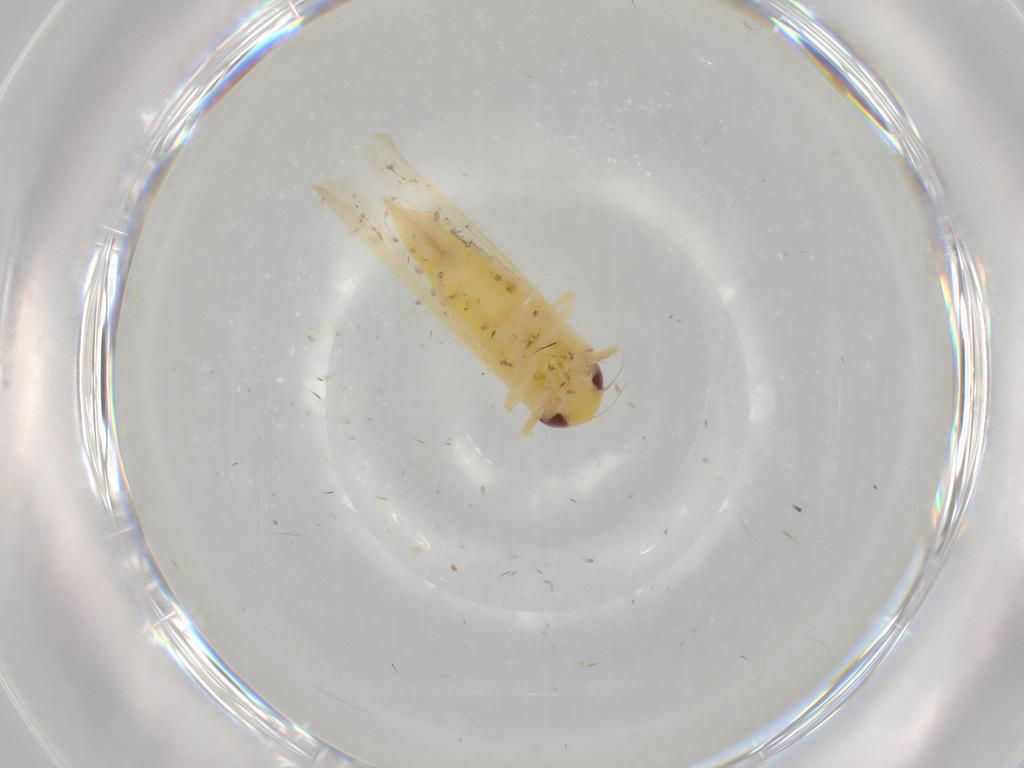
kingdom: Animalia
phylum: Arthropoda
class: Insecta
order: Hemiptera
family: Cicadellidae
